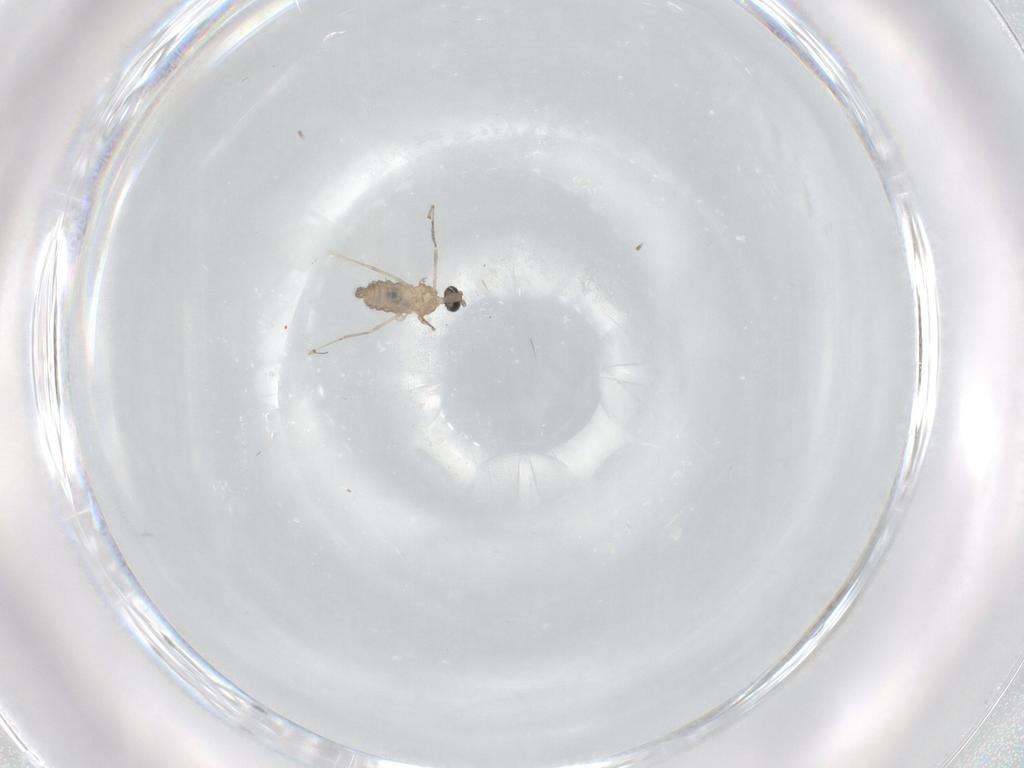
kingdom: Animalia
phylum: Arthropoda
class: Insecta
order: Diptera
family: Cecidomyiidae
